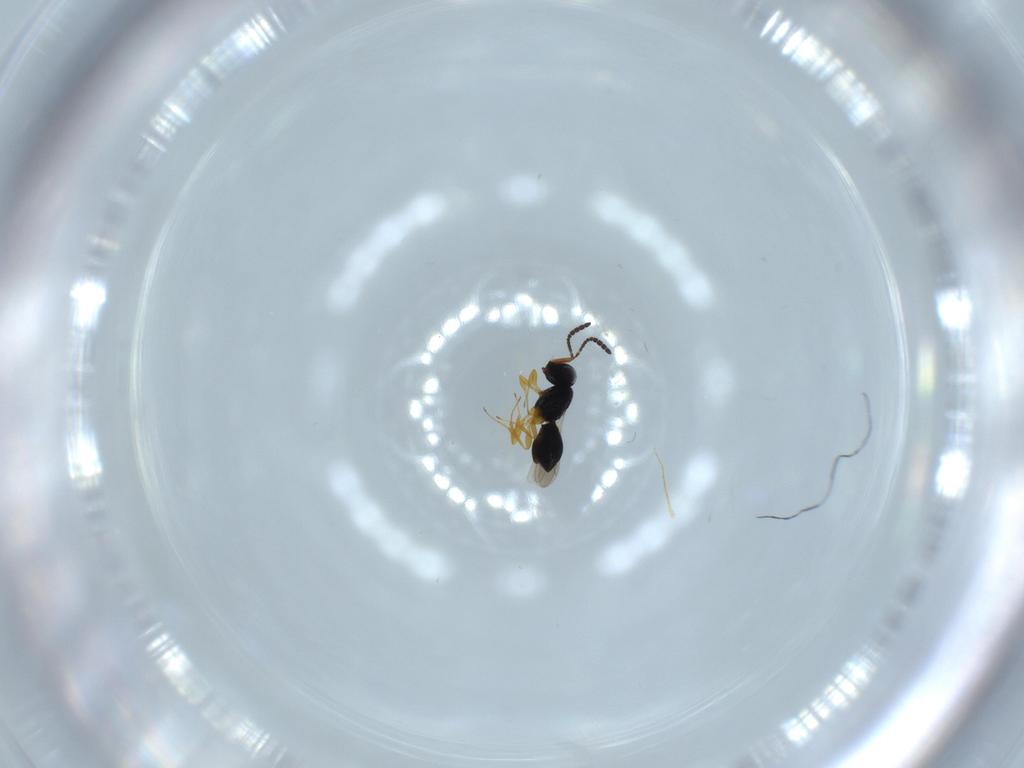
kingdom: Animalia
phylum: Arthropoda
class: Insecta
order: Hymenoptera
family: Scelionidae
